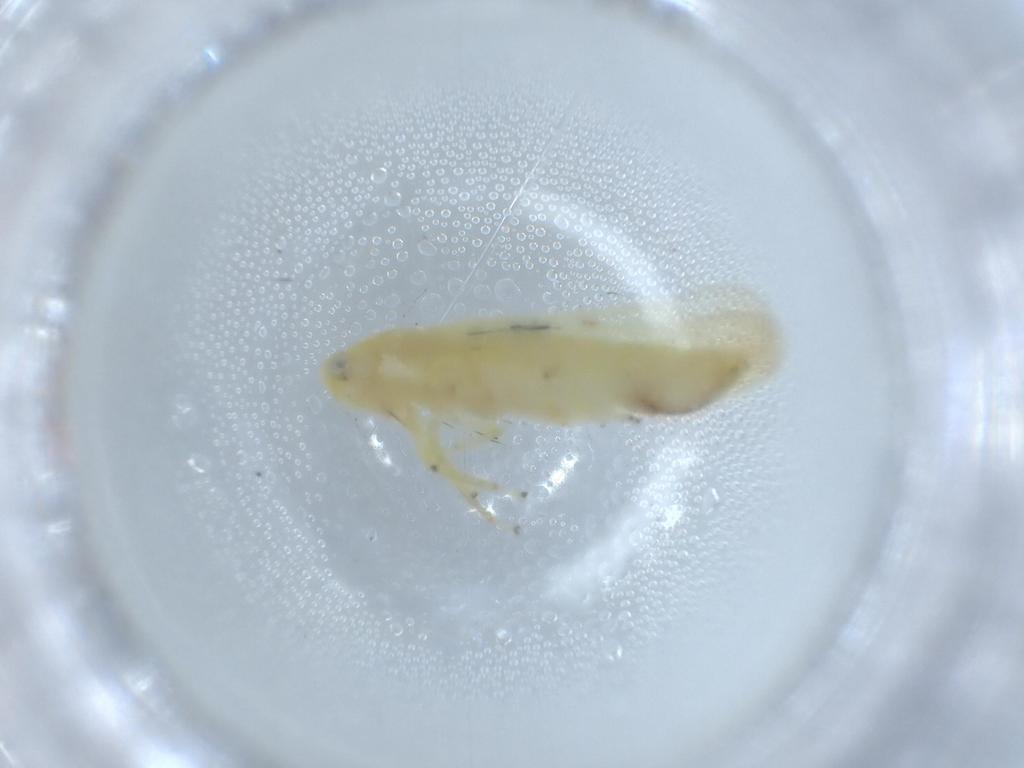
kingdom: Animalia
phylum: Arthropoda
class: Insecta
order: Hemiptera
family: Cicadellidae
